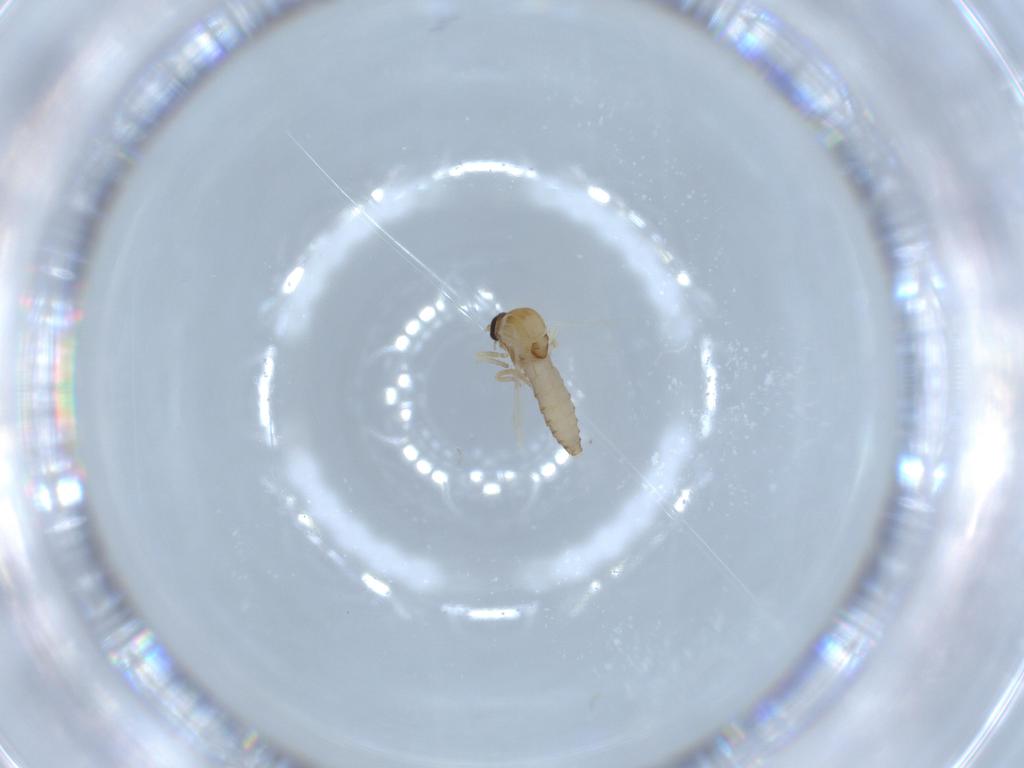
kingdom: Animalia
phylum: Arthropoda
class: Insecta
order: Diptera
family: Ceratopogonidae
